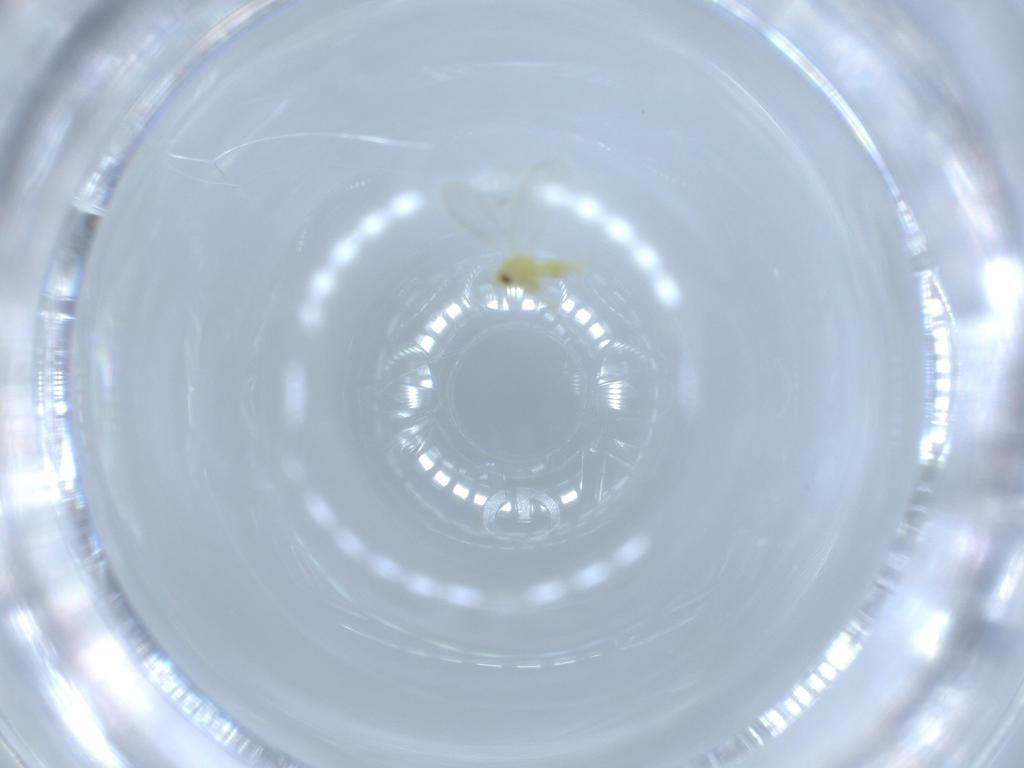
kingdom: Animalia
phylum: Arthropoda
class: Insecta
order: Hemiptera
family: Aleyrodidae
